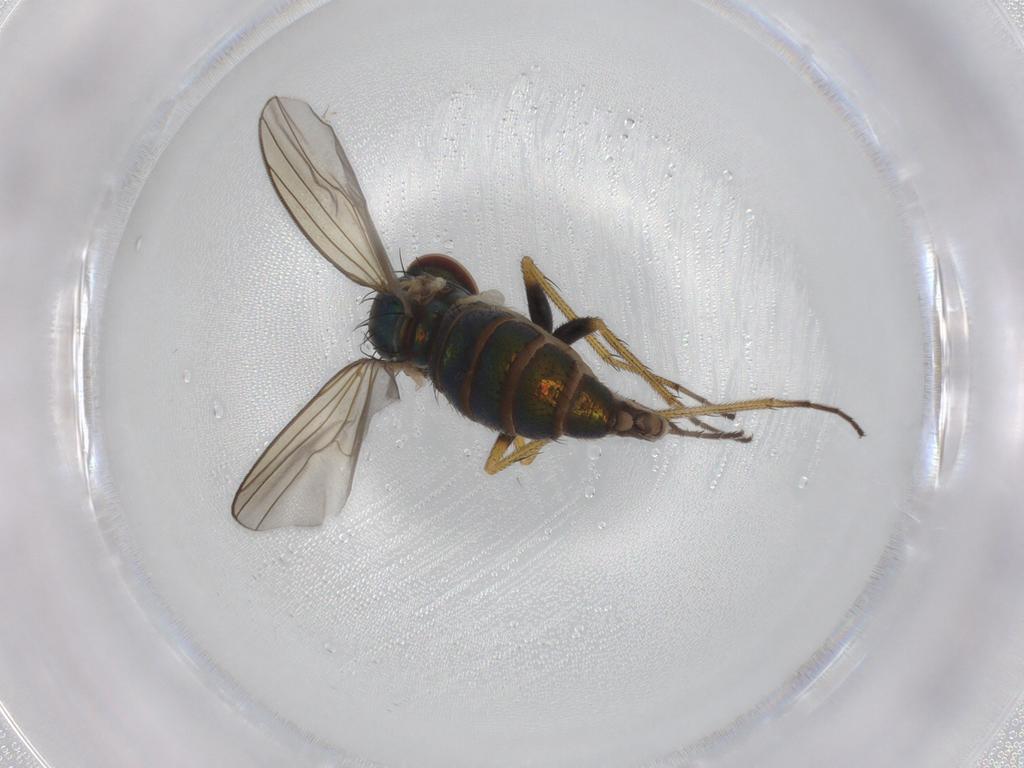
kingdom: Animalia
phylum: Arthropoda
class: Insecta
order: Diptera
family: Dolichopodidae
